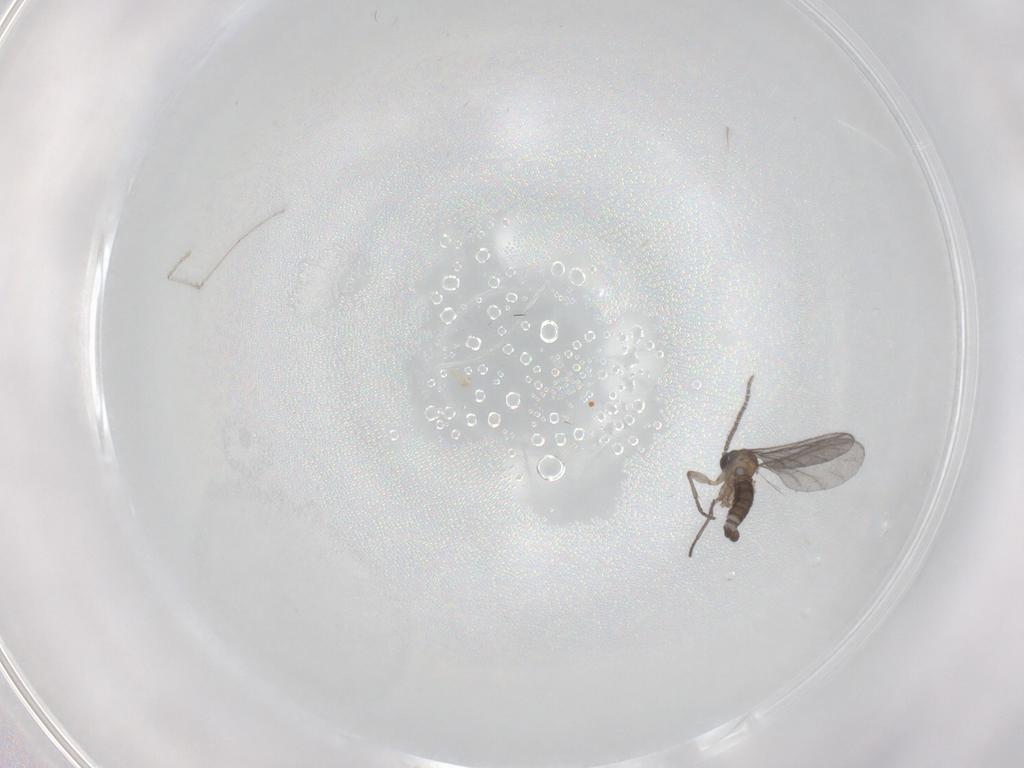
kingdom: Animalia
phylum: Arthropoda
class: Insecta
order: Diptera
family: Drosophilidae
